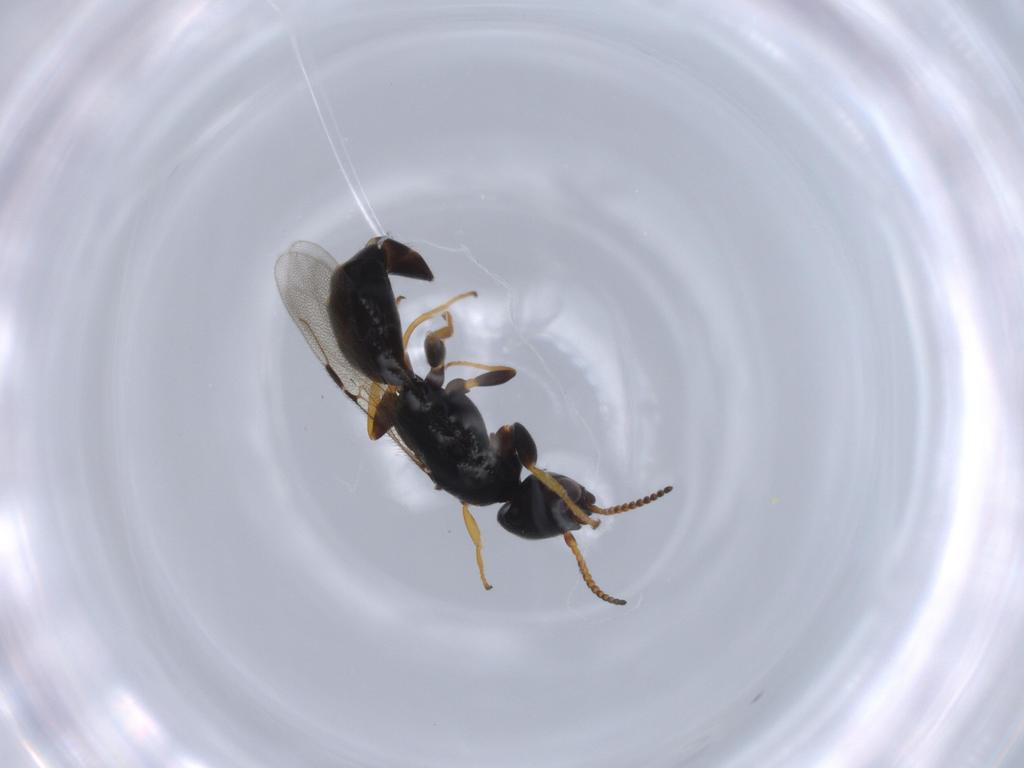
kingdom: Animalia
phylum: Arthropoda
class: Insecta
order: Hymenoptera
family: Bethylidae
